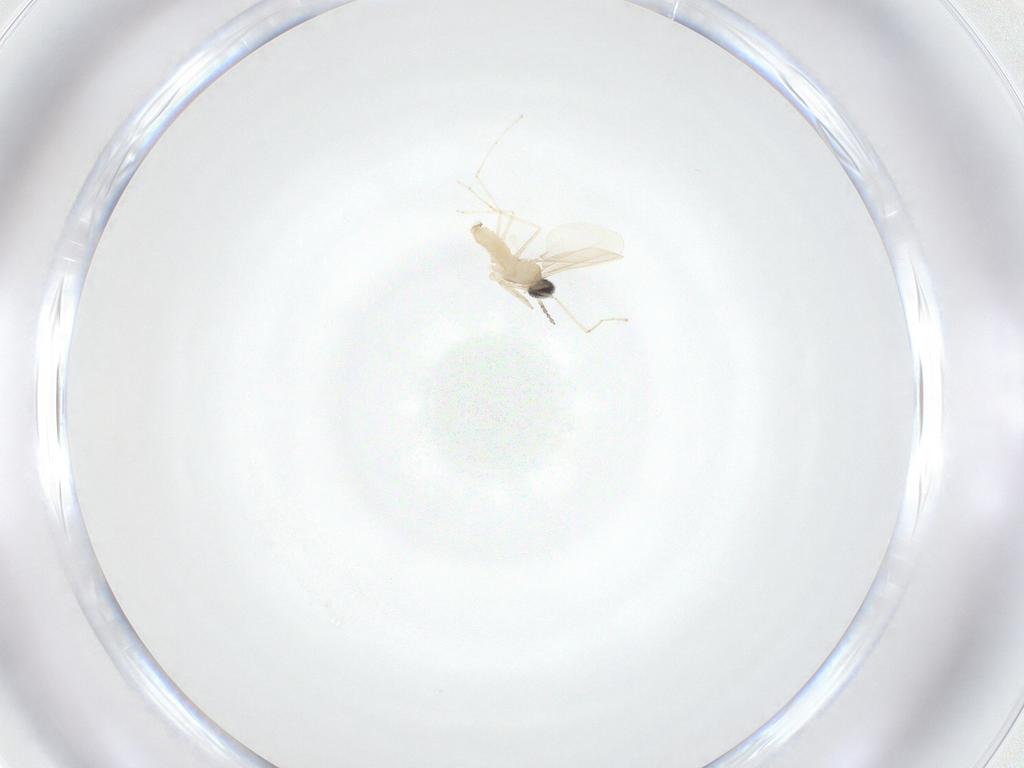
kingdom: Animalia
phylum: Arthropoda
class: Insecta
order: Diptera
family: Cecidomyiidae
